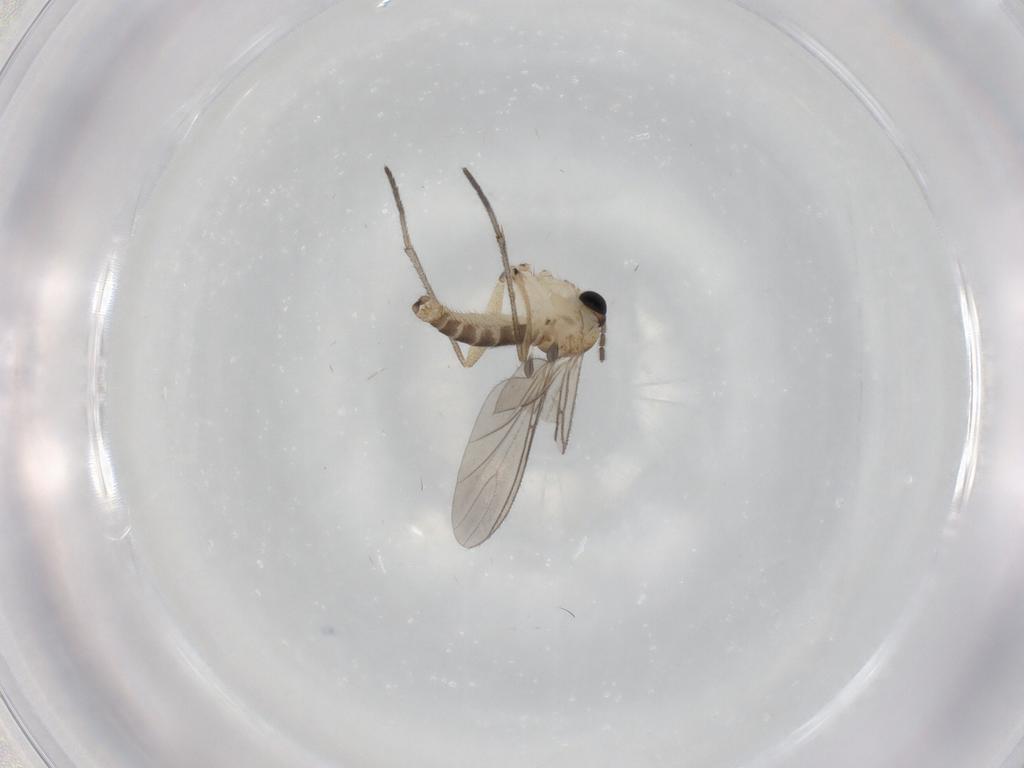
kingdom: Animalia
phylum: Arthropoda
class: Insecta
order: Diptera
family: Sciaridae
